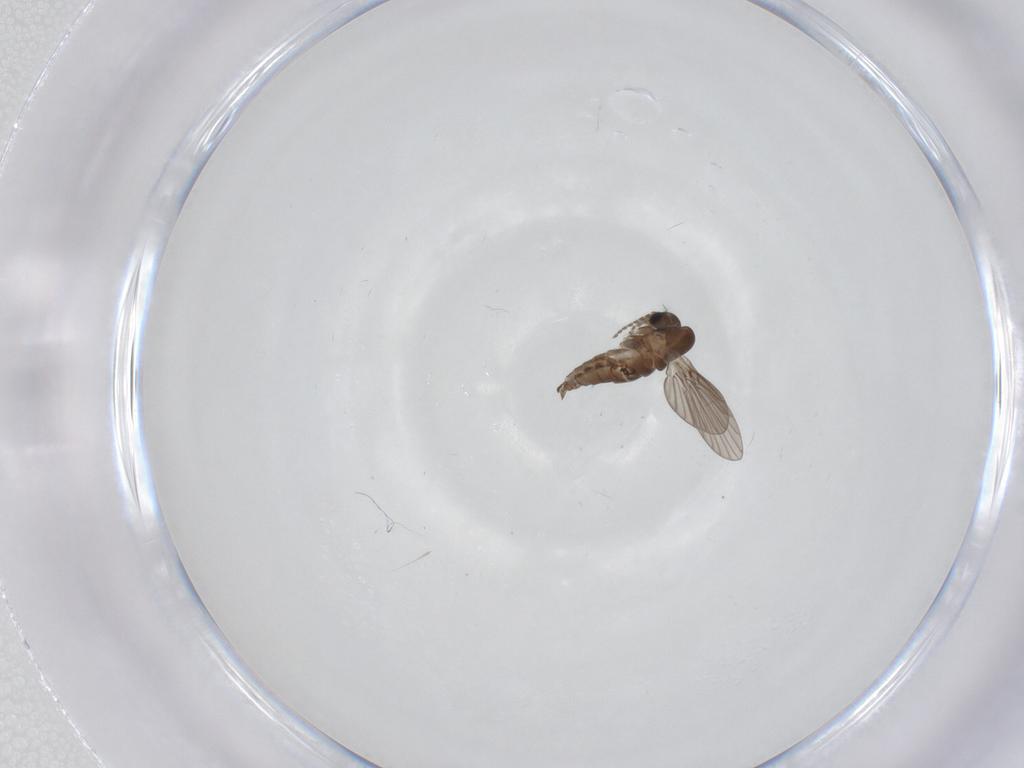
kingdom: Animalia
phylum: Arthropoda
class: Insecta
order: Diptera
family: Psychodidae
